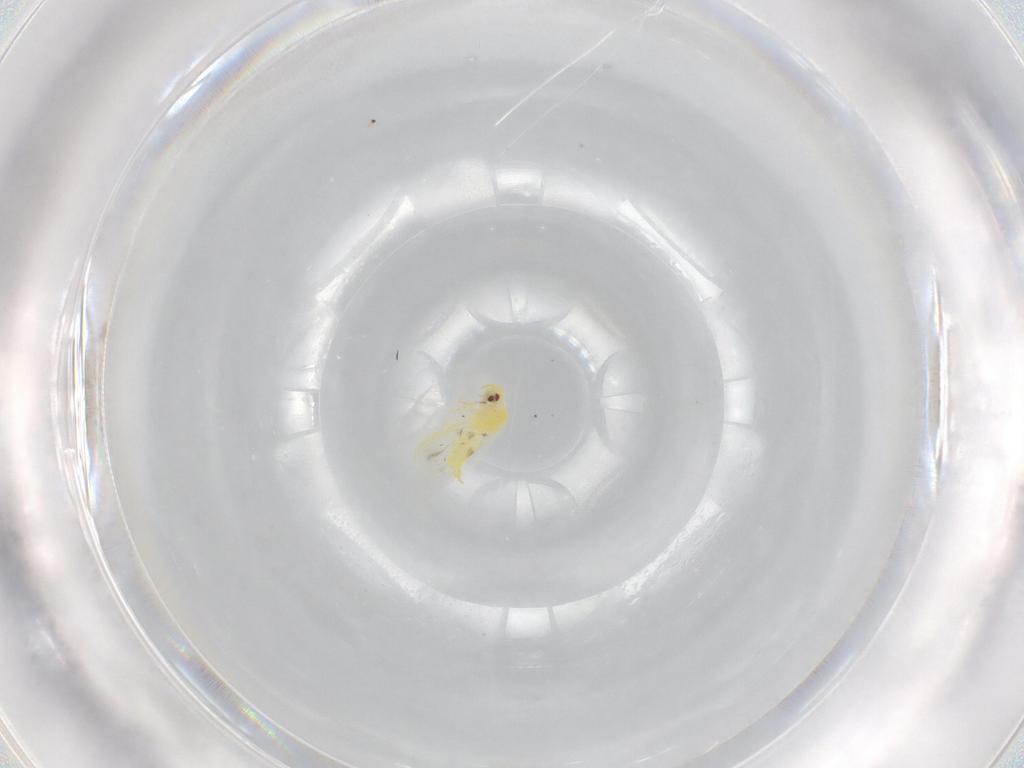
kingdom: Animalia
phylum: Arthropoda
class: Insecta
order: Hemiptera
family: Aleyrodidae
